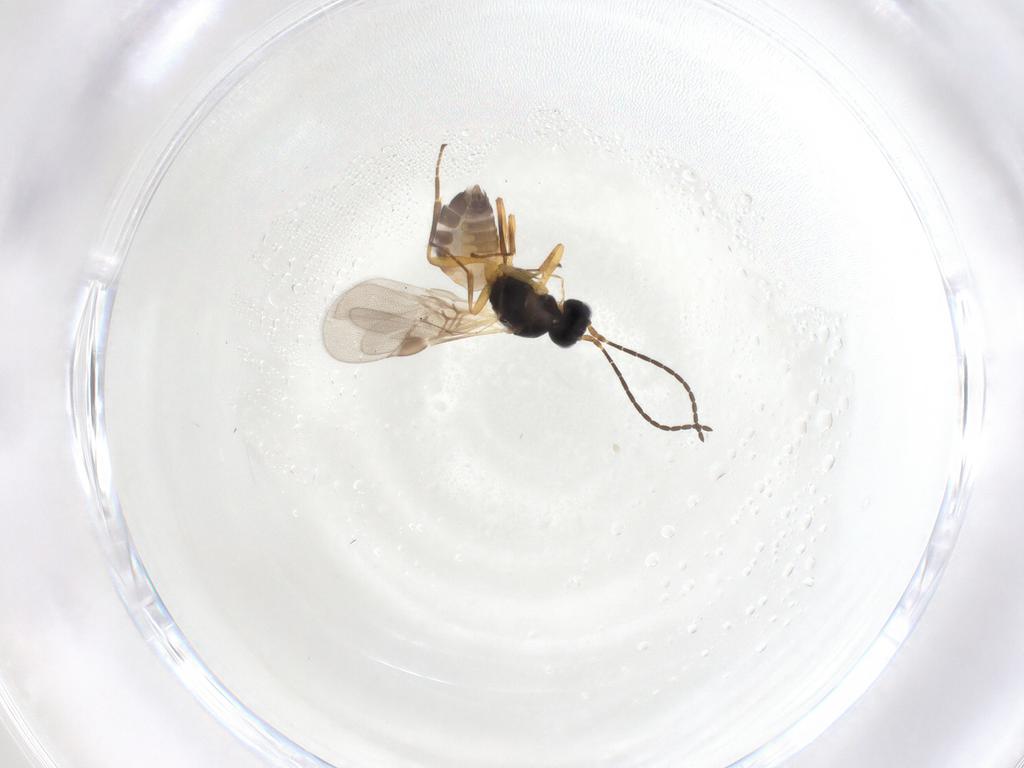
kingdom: Animalia
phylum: Arthropoda
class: Insecta
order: Hymenoptera
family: Braconidae
